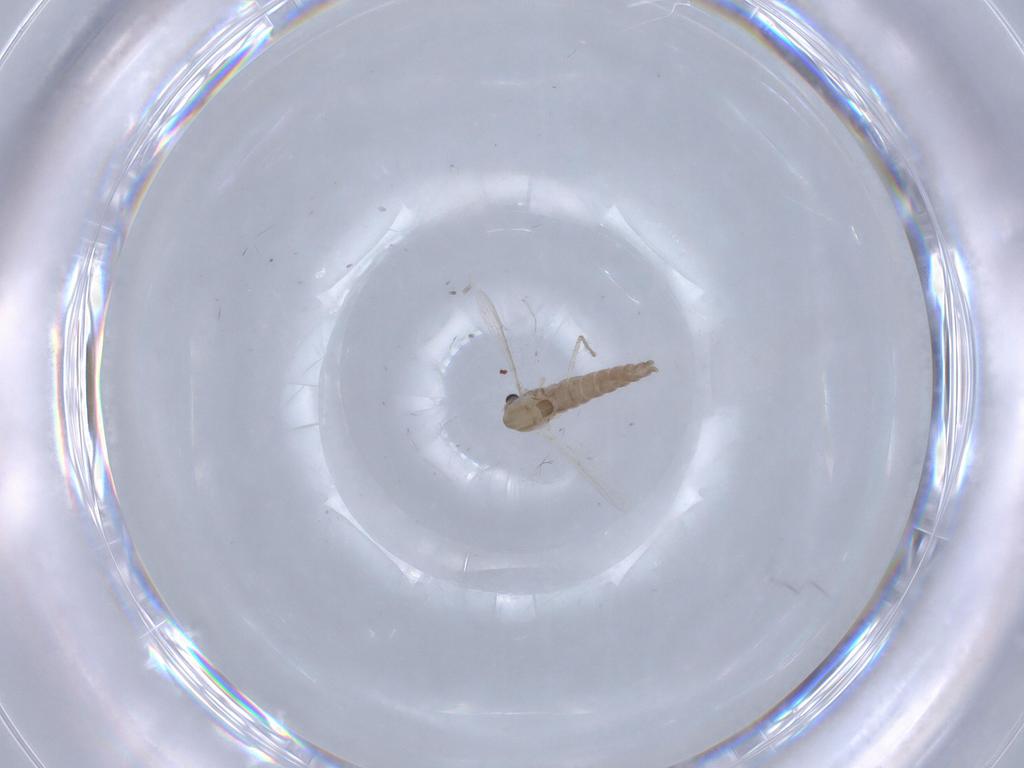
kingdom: Animalia
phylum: Arthropoda
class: Insecta
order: Diptera
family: Chironomidae
